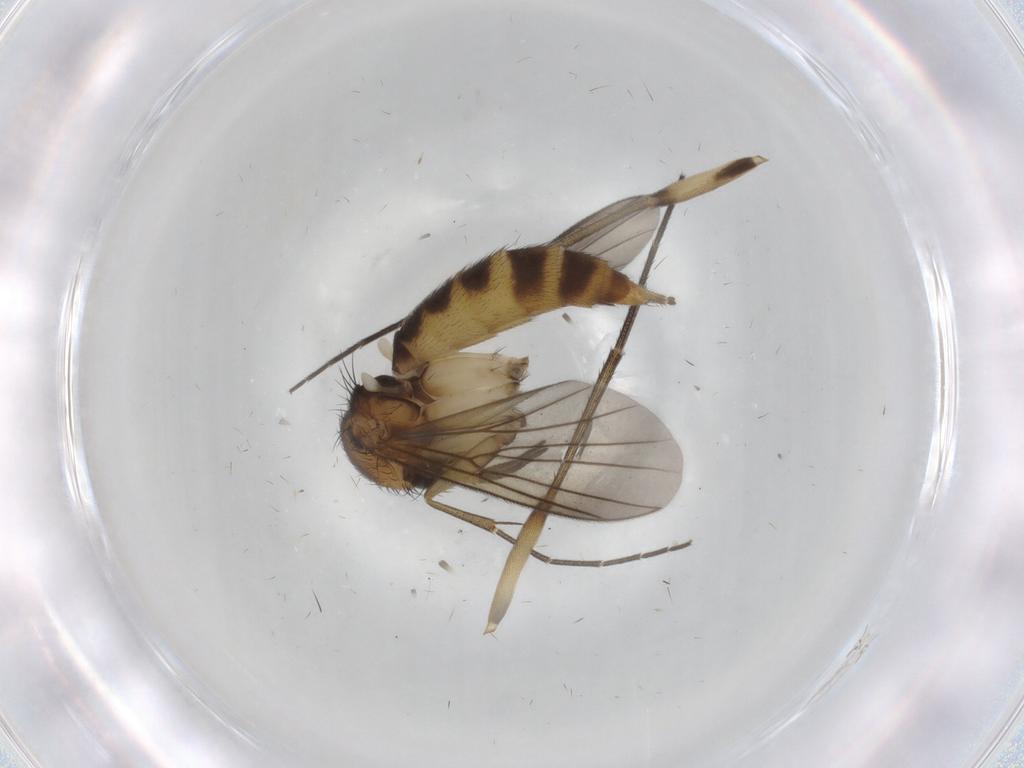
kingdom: Animalia
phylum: Arthropoda
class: Insecta
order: Diptera
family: Mycetophilidae
